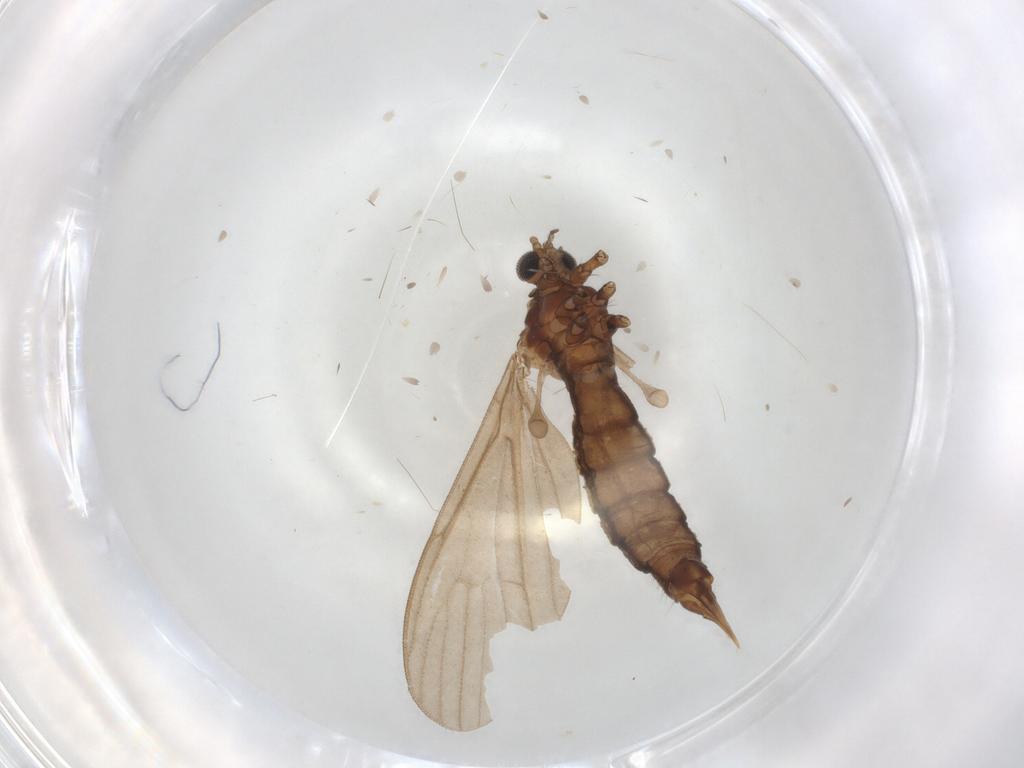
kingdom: Animalia
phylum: Arthropoda
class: Insecta
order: Diptera
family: Limoniidae
